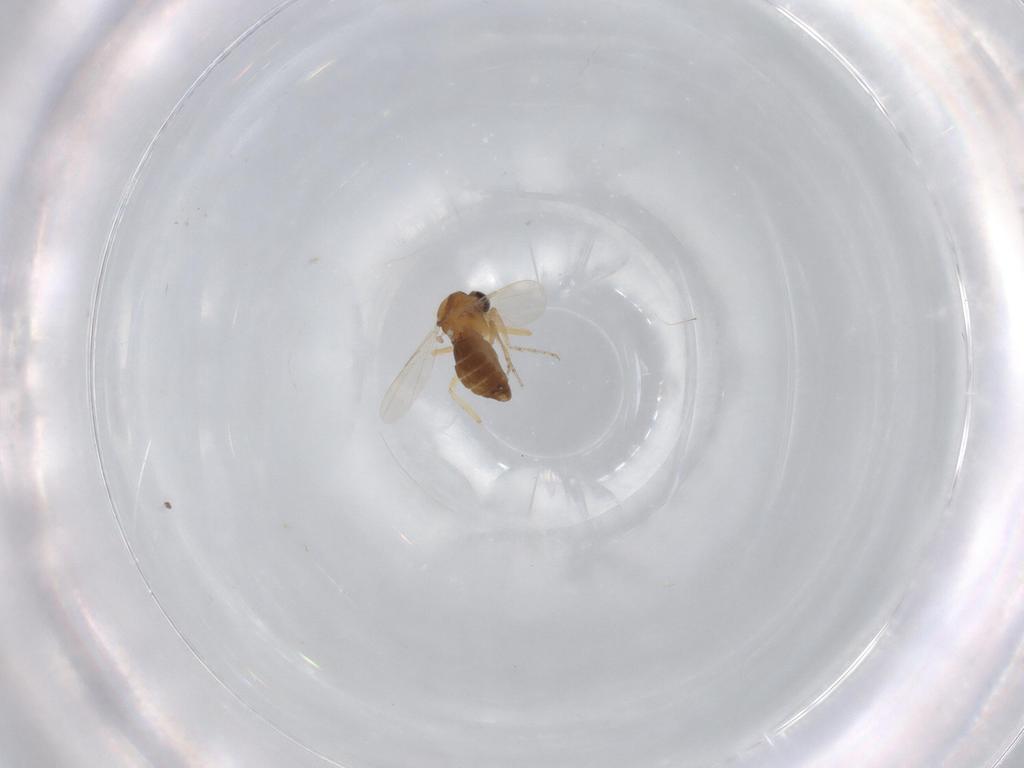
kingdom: Animalia
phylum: Arthropoda
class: Insecta
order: Diptera
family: Ceratopogonidae
